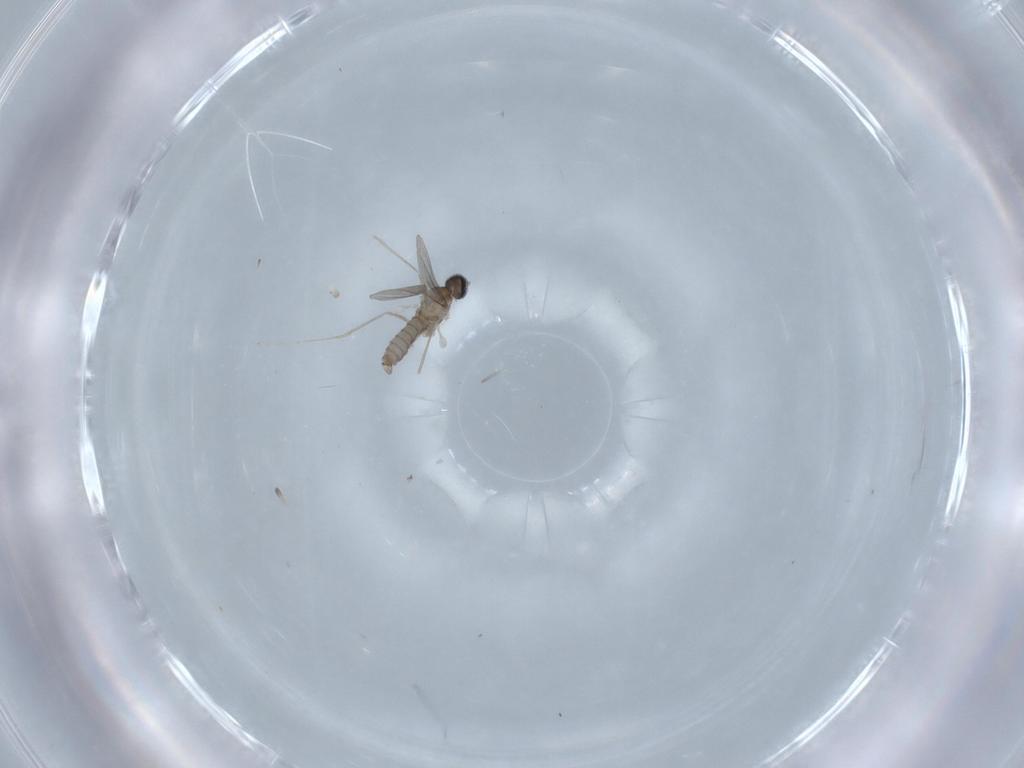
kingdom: Animalia
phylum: Arthropoda
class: Insecta
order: Diptera
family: Cecidomyiidae
